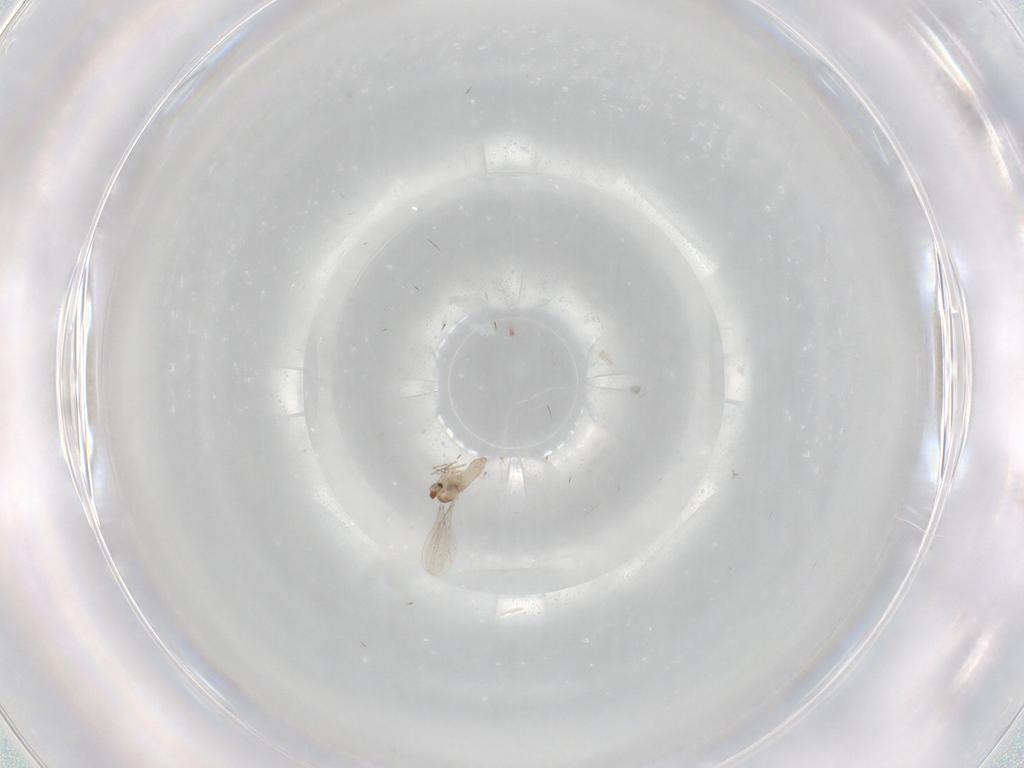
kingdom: Animalia
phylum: Arthropoda
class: Insecta
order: Diptera
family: Cecidomyiidae
